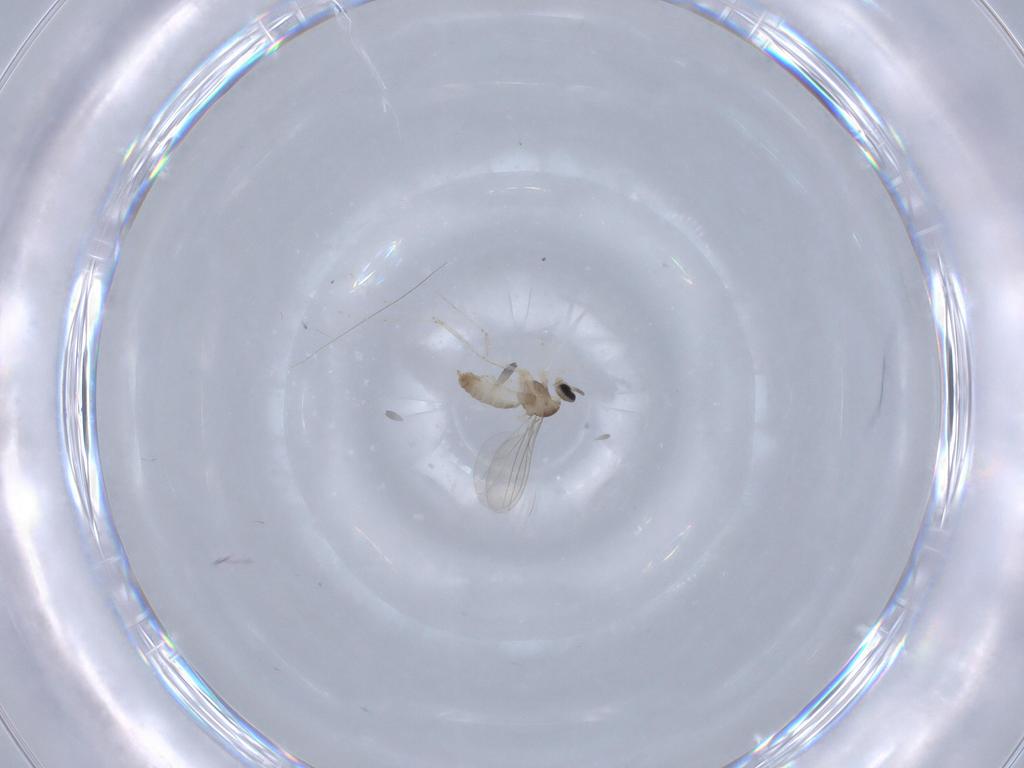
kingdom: Animalia
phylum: Arthropoda
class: Insecta
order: Diptera
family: Cecidomyiidae
